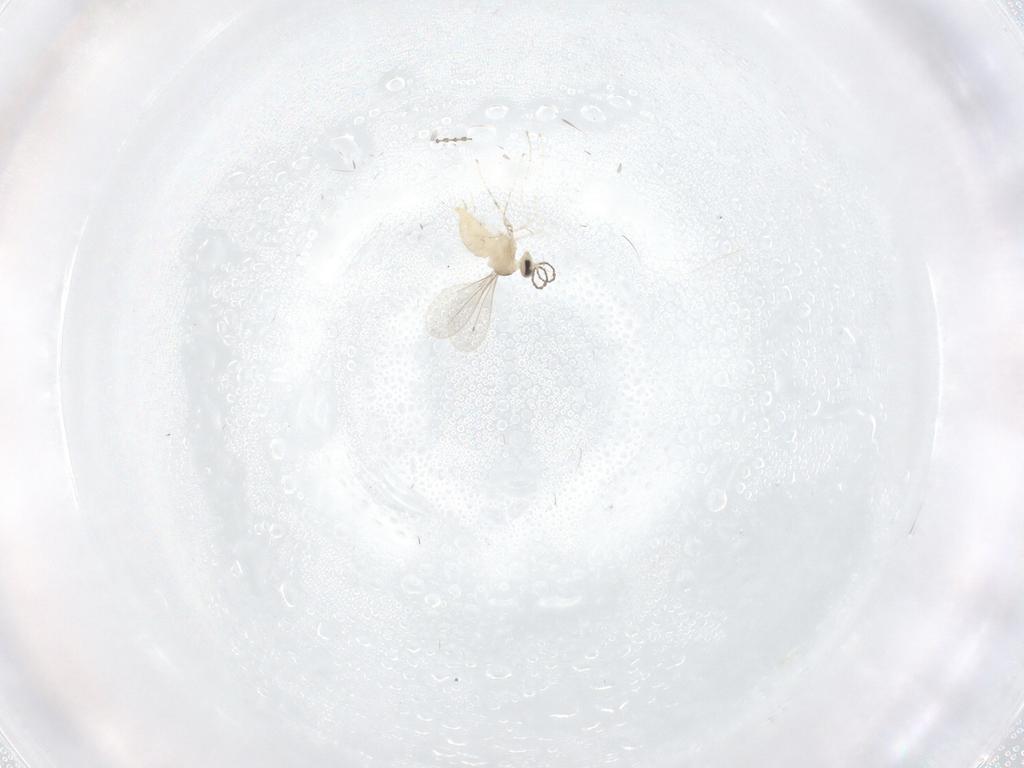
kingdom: Animalia
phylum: Arthropoda
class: Insecta
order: Diptera
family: Cecidomyiidae
